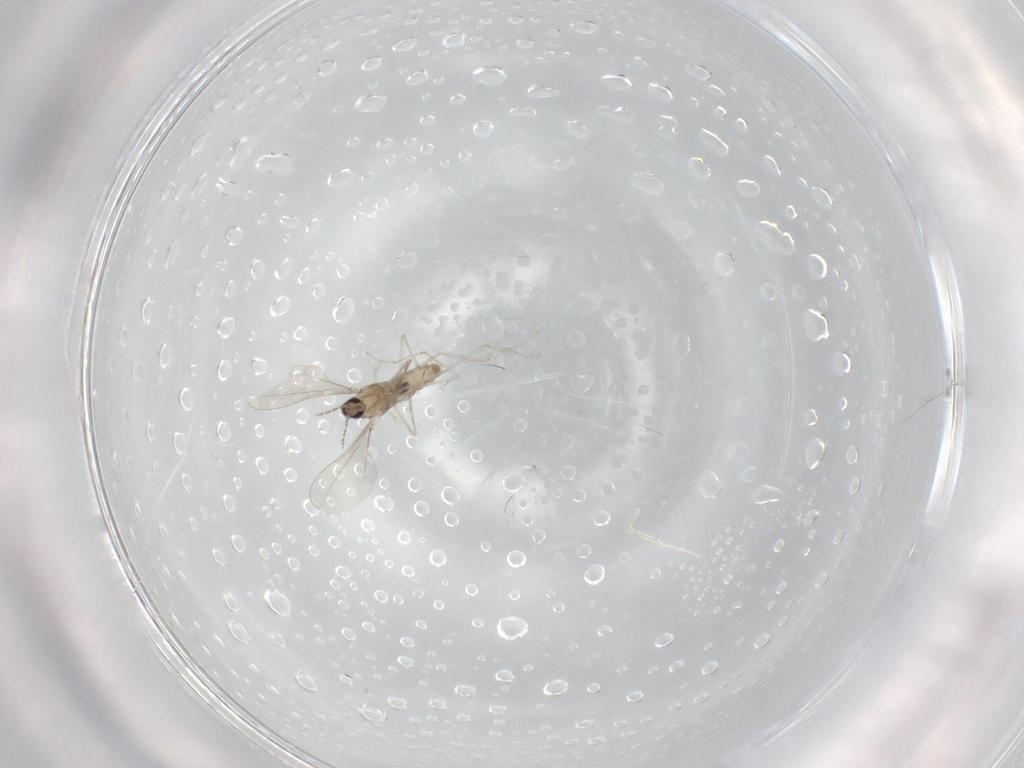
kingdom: Animalia
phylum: Arthropoda
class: Insecta
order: Diptera
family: Cecidomyiidae
